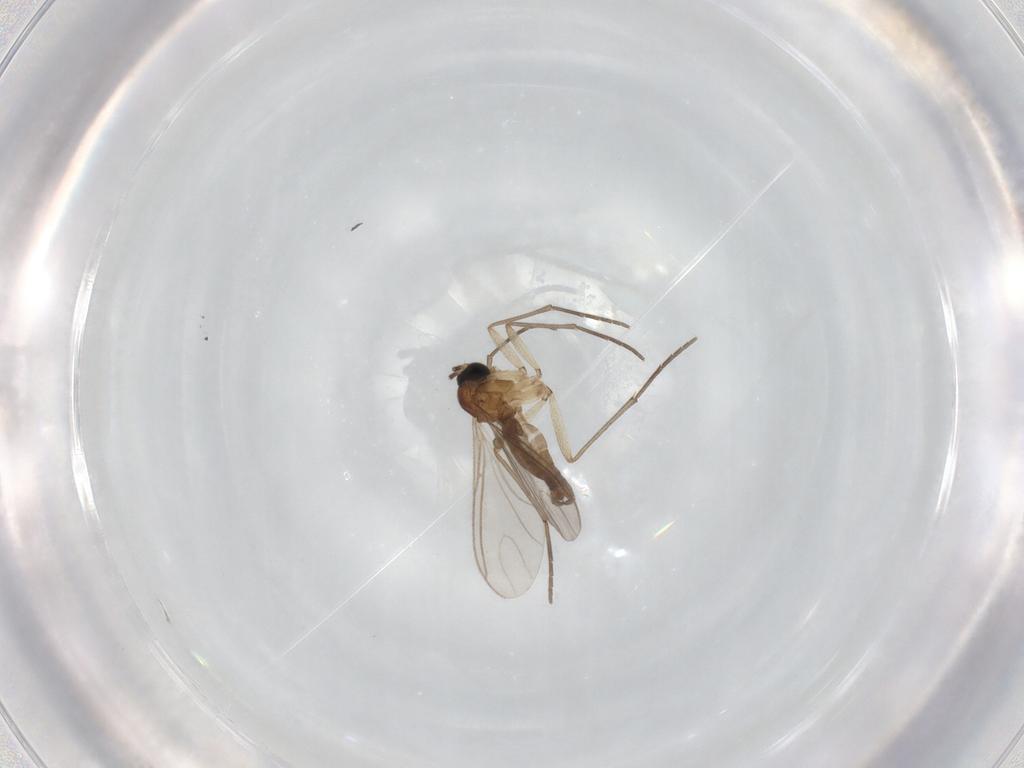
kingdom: Animalia
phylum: Arthropoda
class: Insecta
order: Diptera
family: Sciaridae
